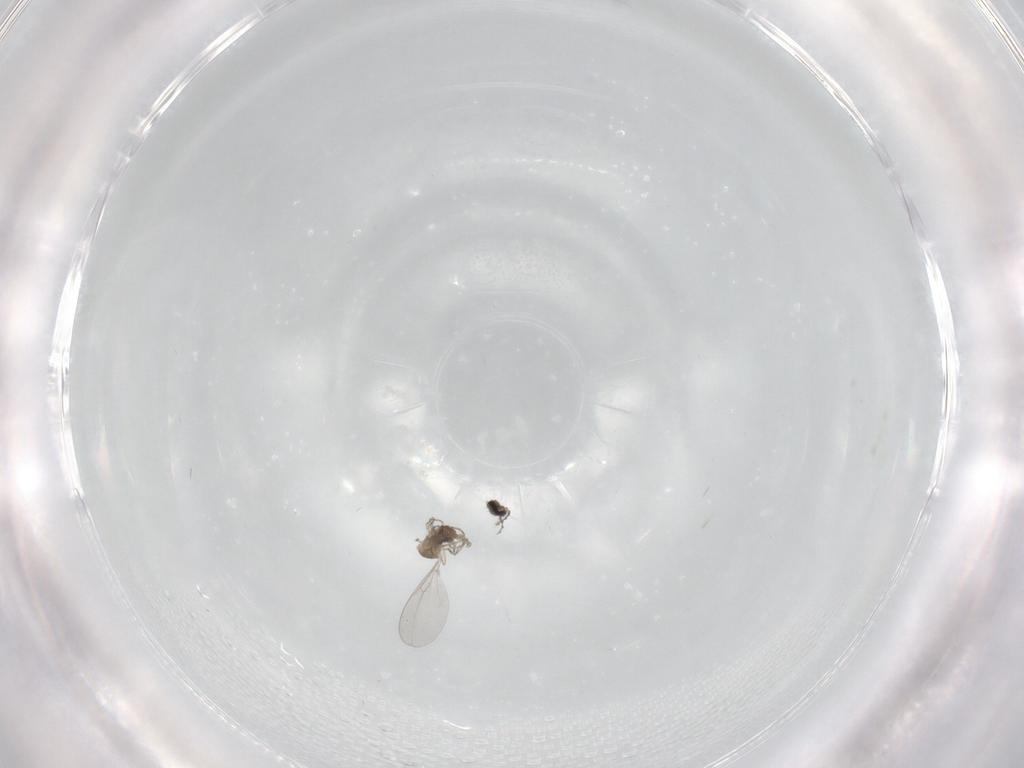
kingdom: Animalia
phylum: Arthropoda
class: Insecta
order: Diptera
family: Cecidomyiidae
